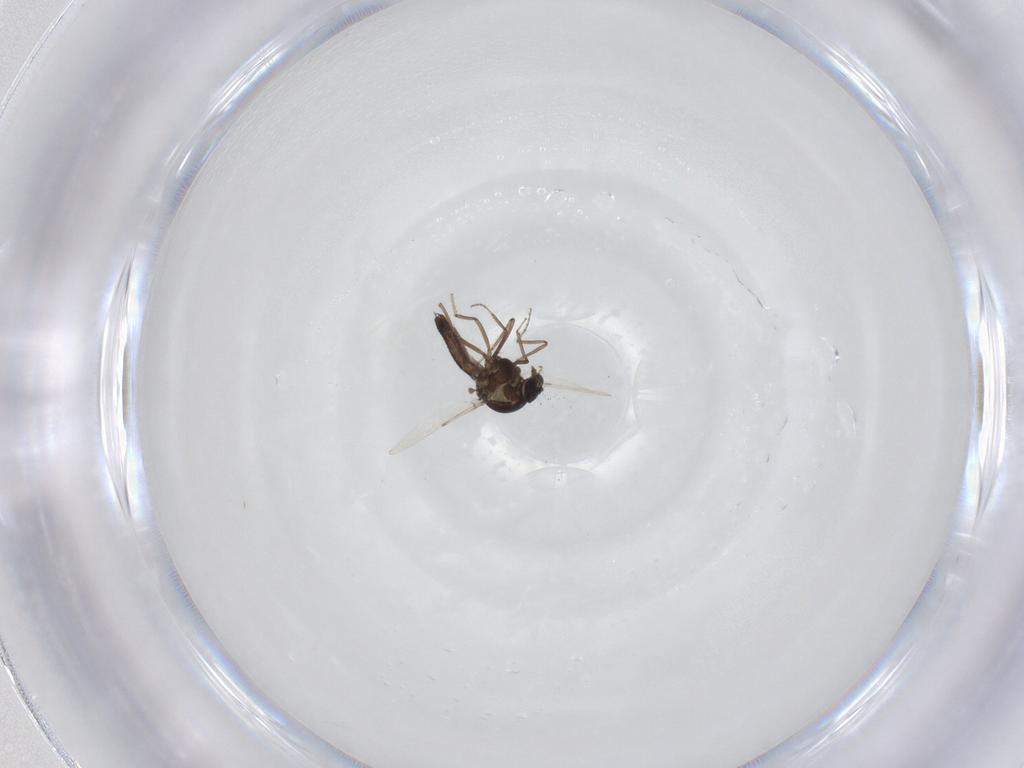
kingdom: Animalia
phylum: Arthropoda
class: Insecta
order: Diptera
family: Ceratopogonidae
